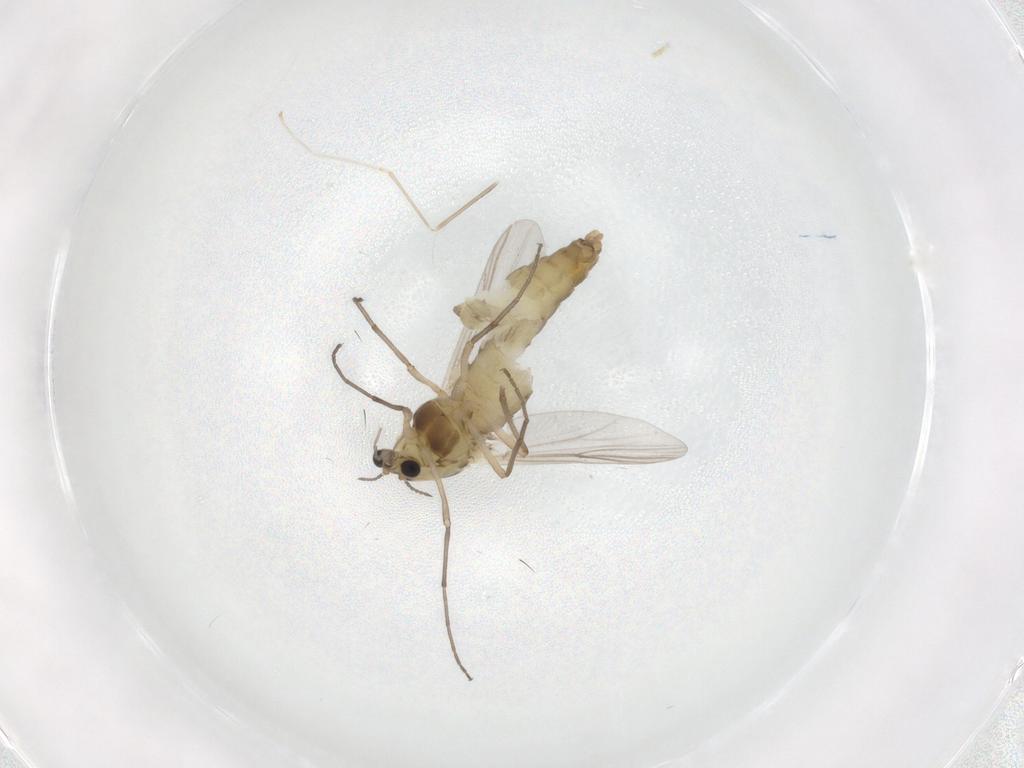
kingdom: Animalia
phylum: Arthropoda
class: Insecta
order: Diptera
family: Chironomidae
